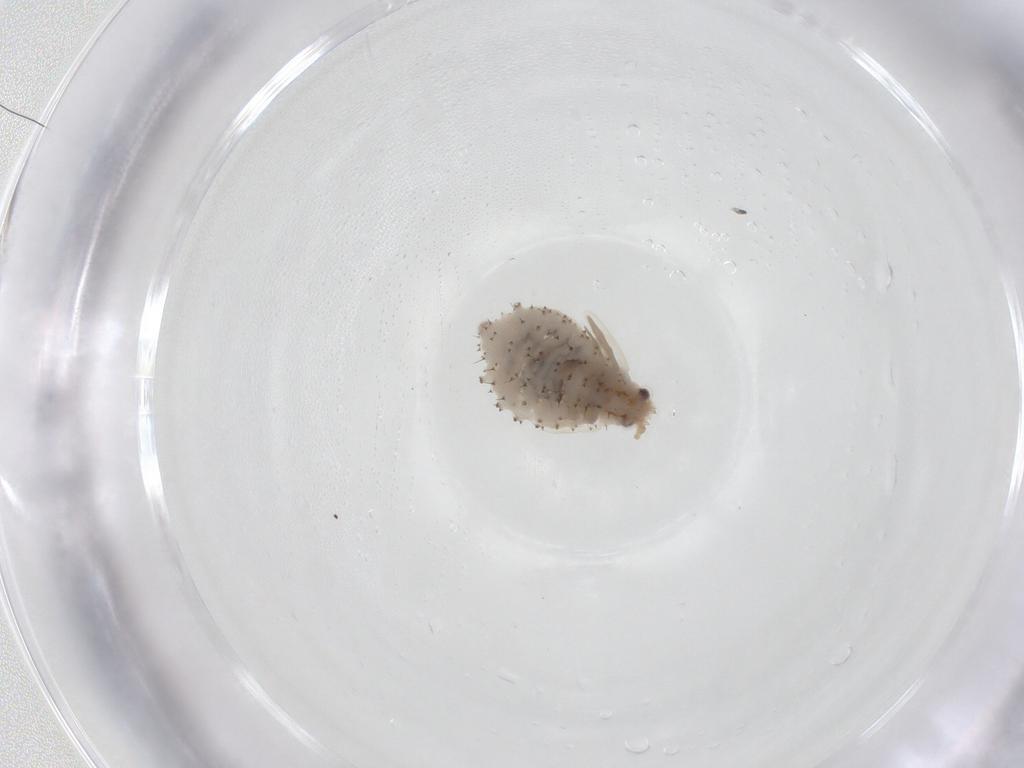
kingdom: Animalia
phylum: Arthropoda
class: Insecta
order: Hemiptera
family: Aphididae
